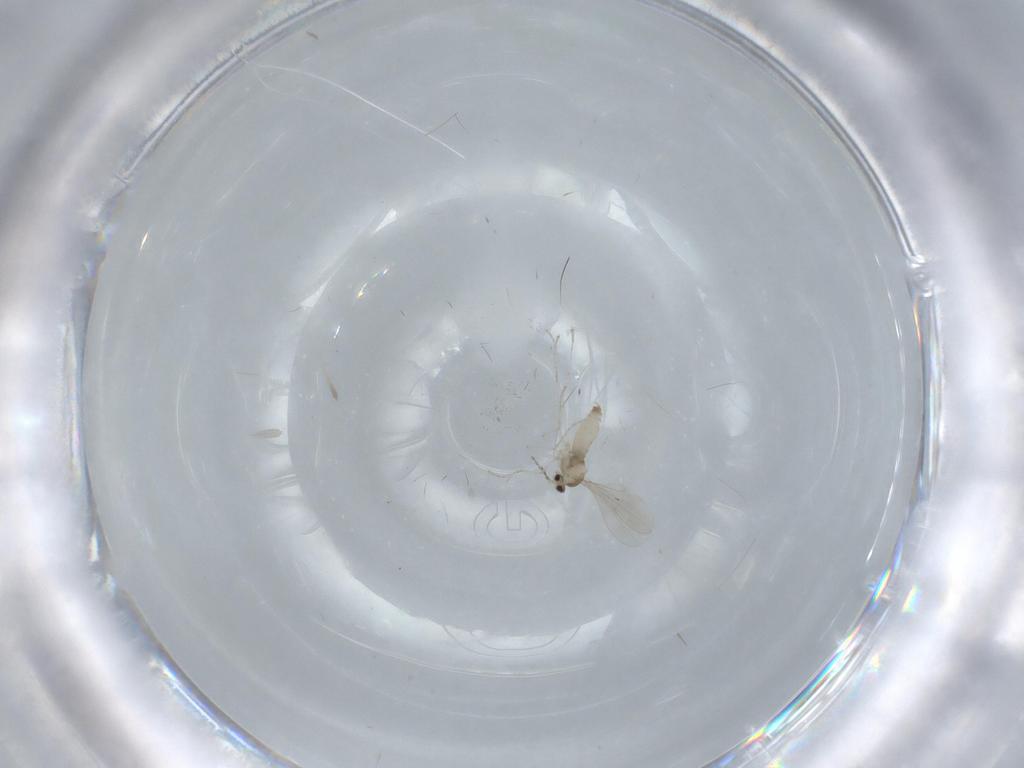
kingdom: Animalia
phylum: Arthropoda
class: Insecta
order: Diptera
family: Cecidomyiidae
